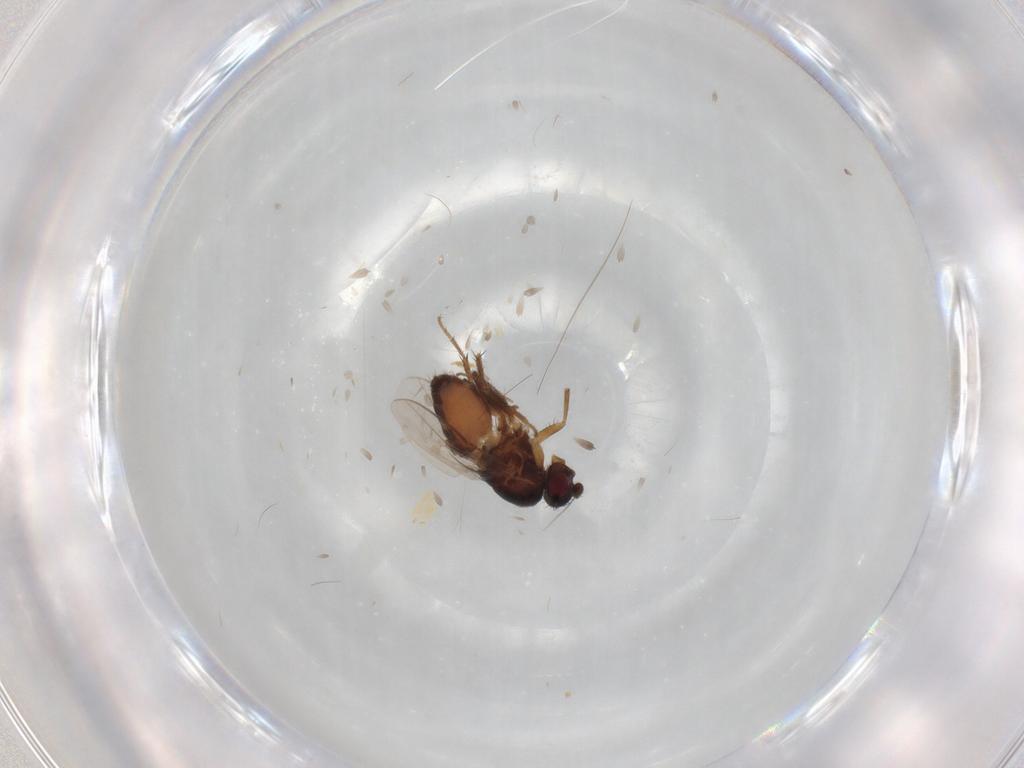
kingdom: Animalia
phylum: Arthropoda
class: Insecta
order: Diptera
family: Sphaeroceridae
